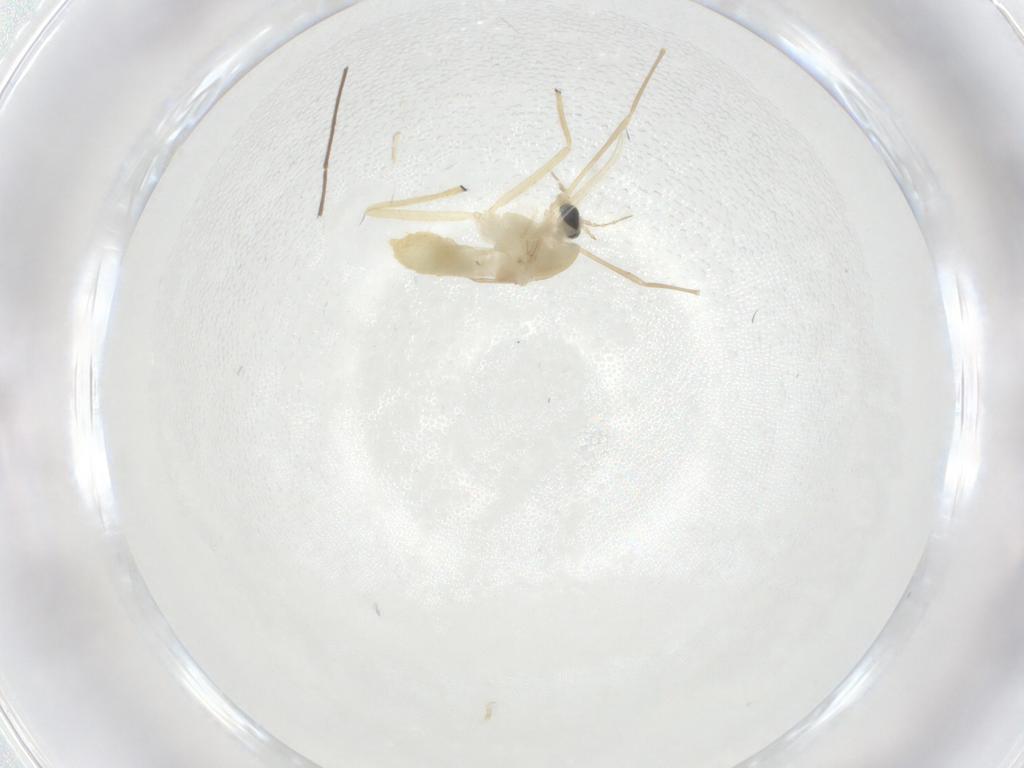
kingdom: Animalia
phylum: Arthropoda
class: Insecta
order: Diptera
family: Chironomidae
